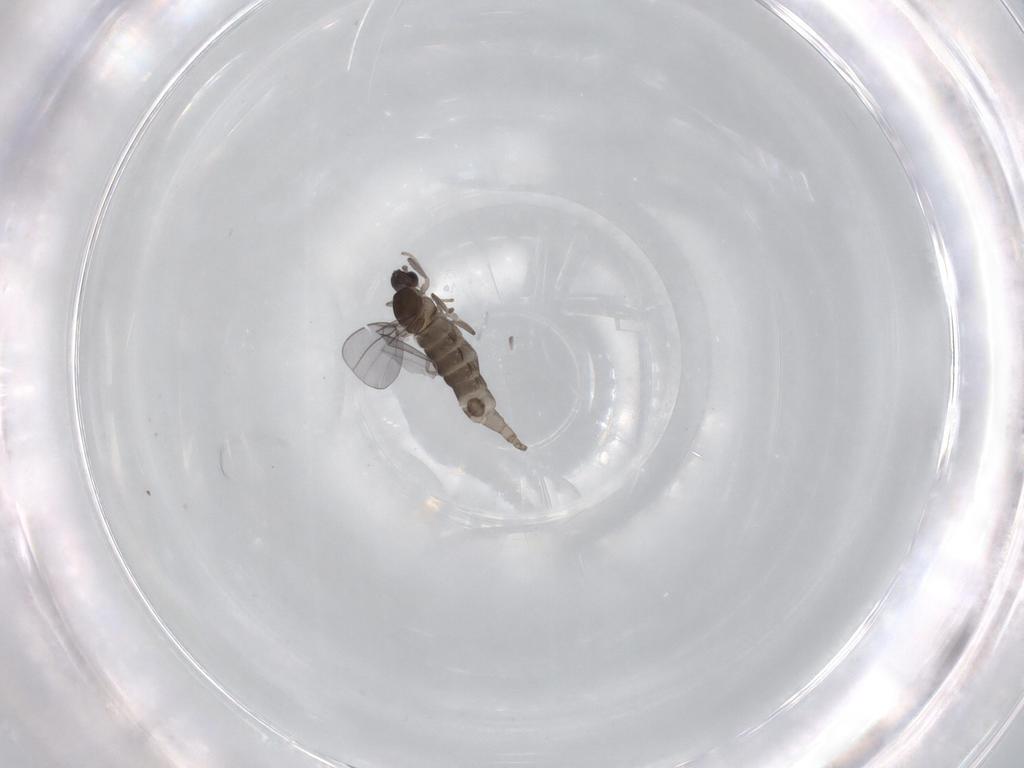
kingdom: Animalia
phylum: Arthropoda
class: Insecta
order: Diptera
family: Cecidomyiidae
